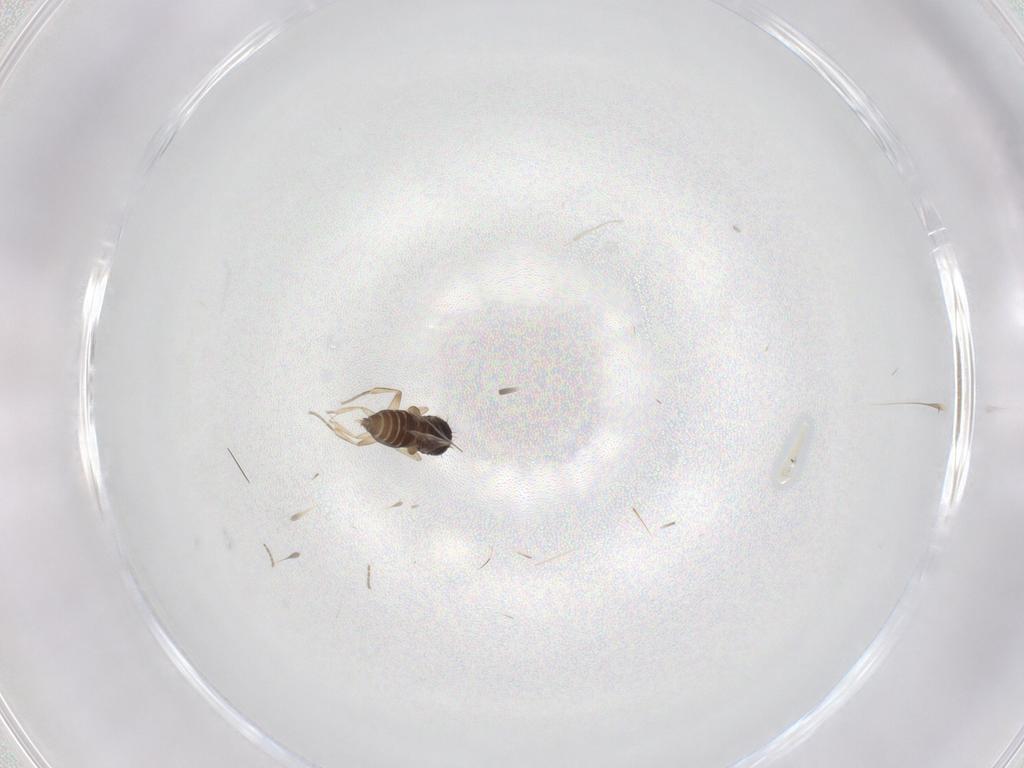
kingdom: Animalia
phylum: Arthropoda
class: Insecta
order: Diptera
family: Phoridae
